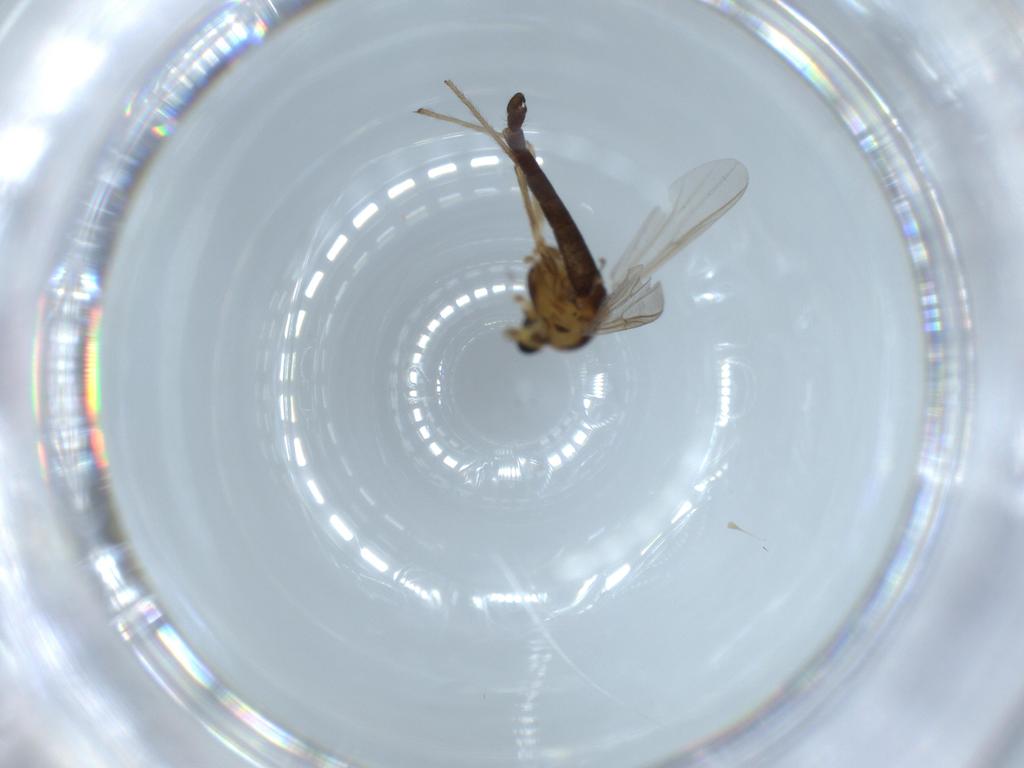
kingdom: Animalia
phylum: Arthropoda
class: Insecta
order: Diptera
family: Chironomidae
